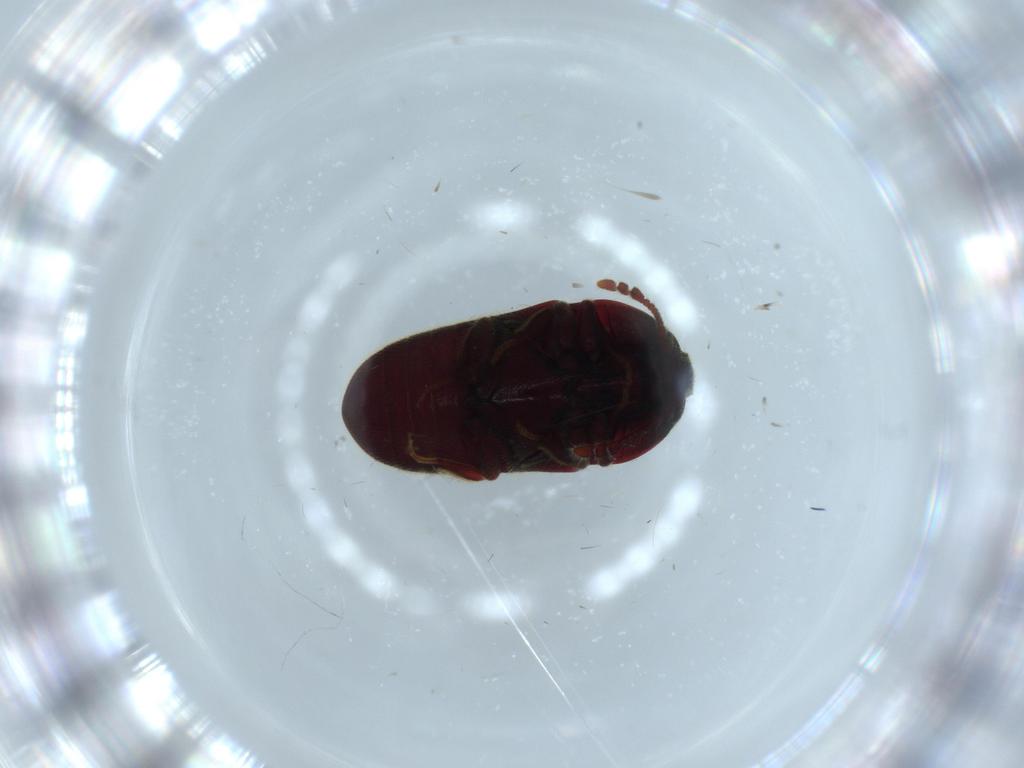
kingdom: Animalia
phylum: Arthropoda
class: Insecta
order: Coleoptera
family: Throscidae
